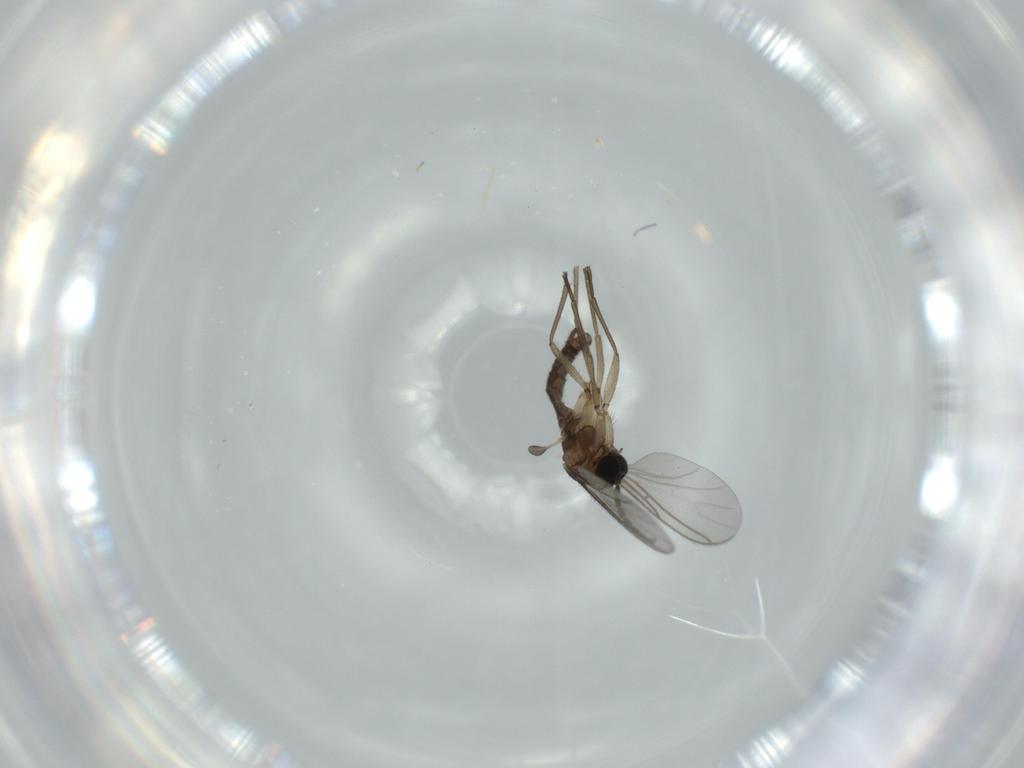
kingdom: Animalia
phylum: Arthropoda
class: Insecta
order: Diptera
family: Sciaridae
